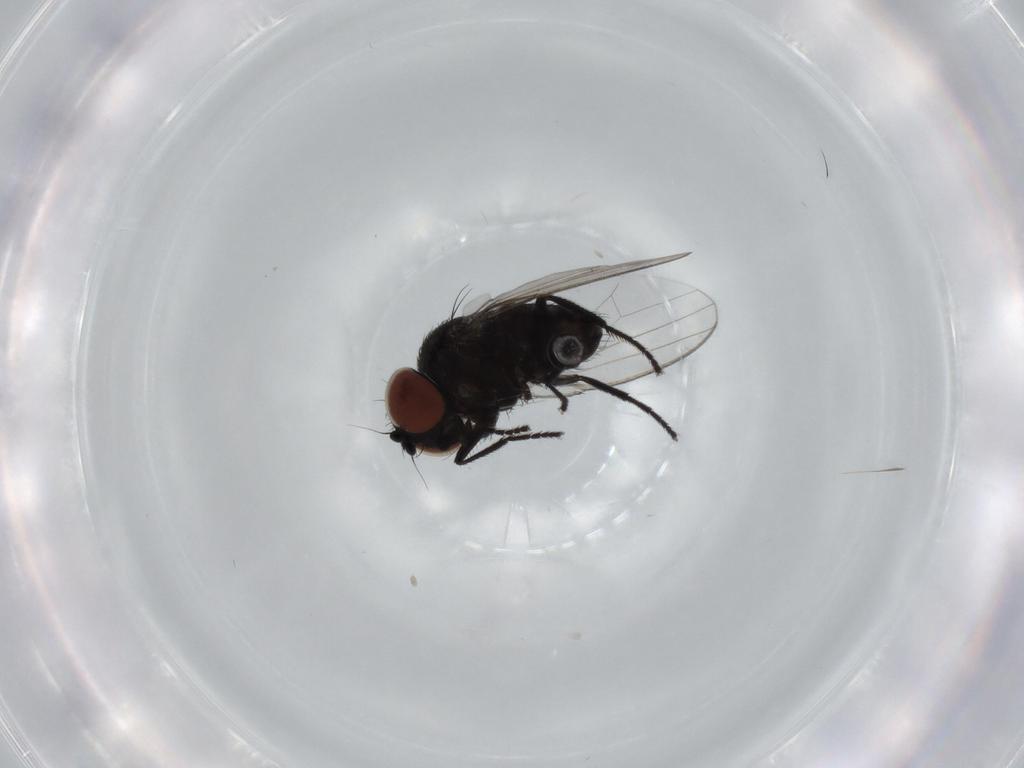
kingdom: Animalia
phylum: Arthropoda
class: Insecta
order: Diptera
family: Milichiidae
